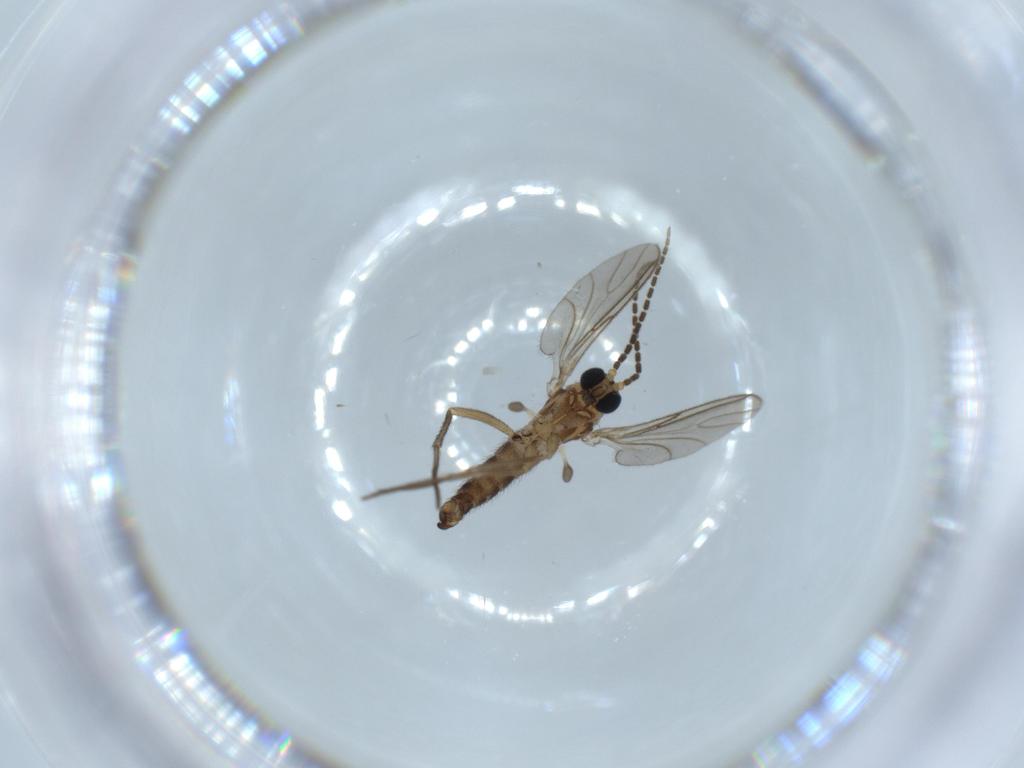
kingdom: Animalia
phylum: Arthropoda
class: Insecta
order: Diptera
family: Sciaridae
